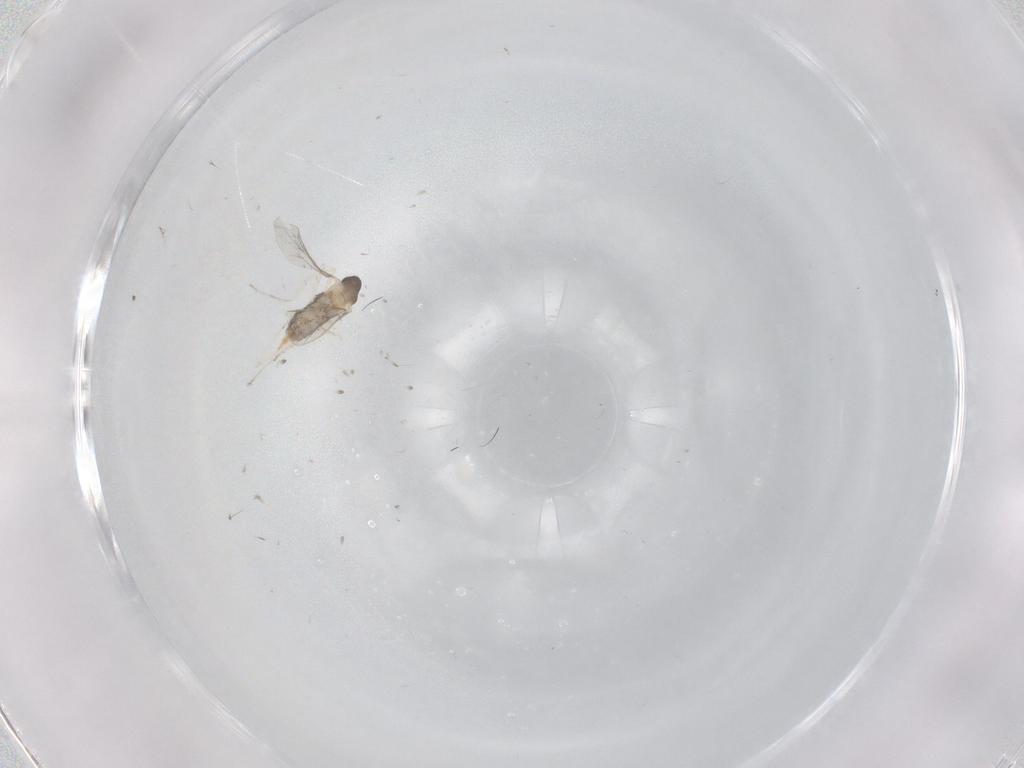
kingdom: Animalia
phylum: Arthropoda
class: Insecta
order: Diptera
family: Cecidomyiidae
